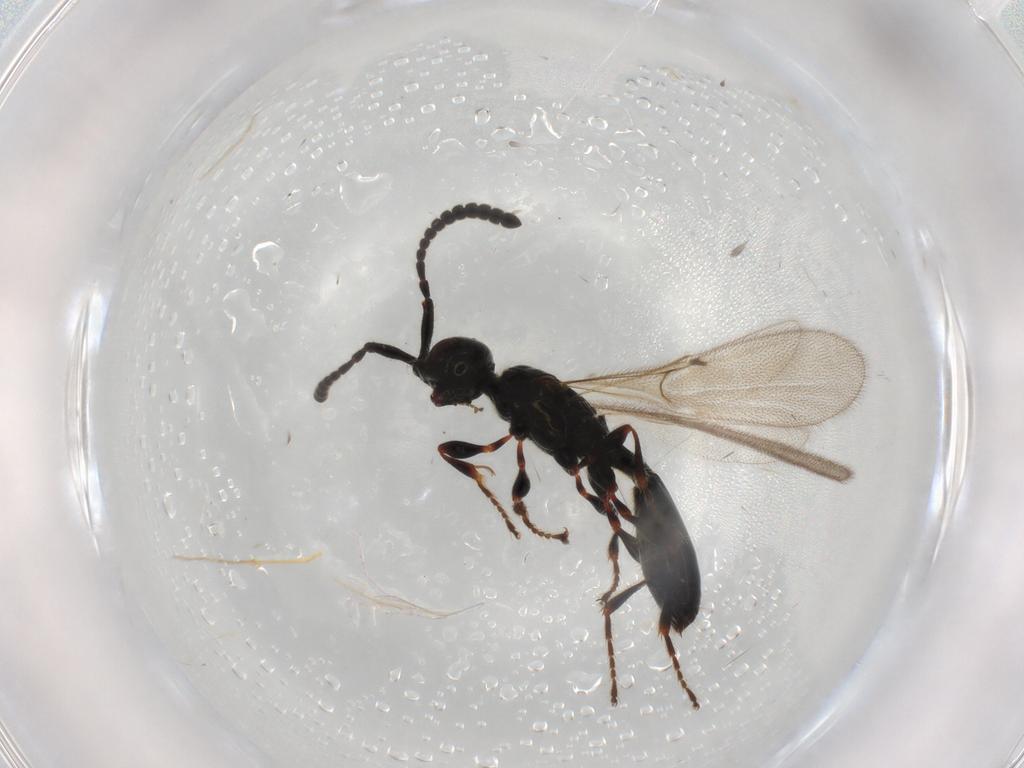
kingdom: Animalia
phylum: Arthropoda
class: Insecta
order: Hymenoptera
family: Diapriidae
